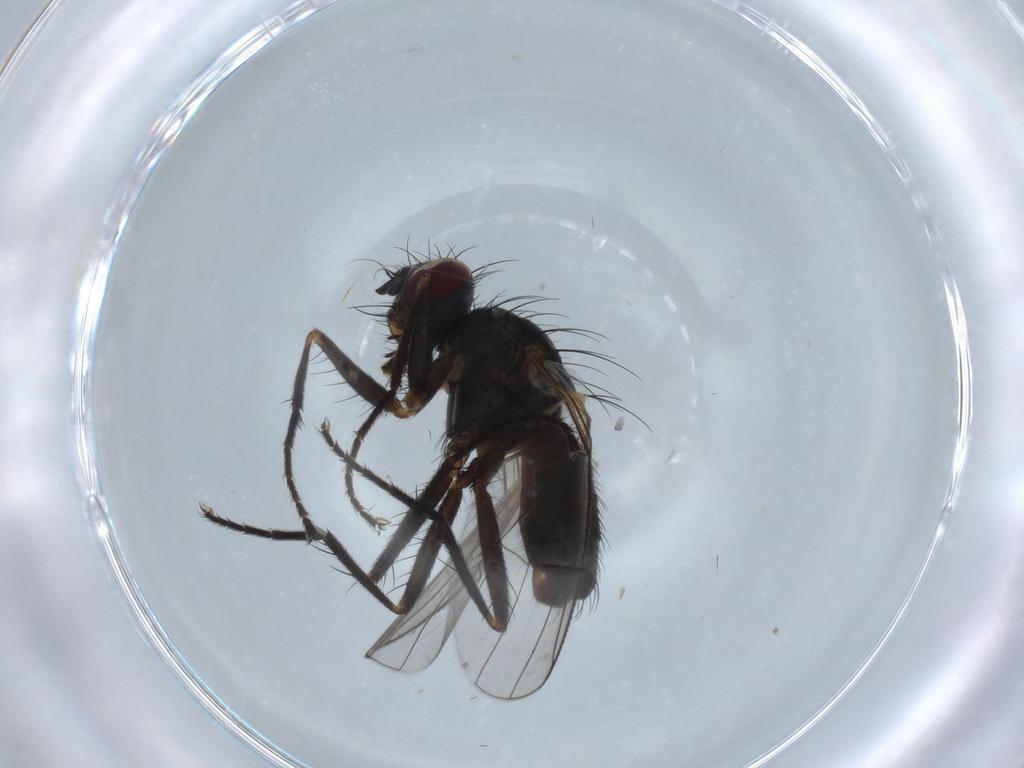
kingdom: Animalia
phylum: Arthropoda
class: Insecta
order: Diptera
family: Muscidae
